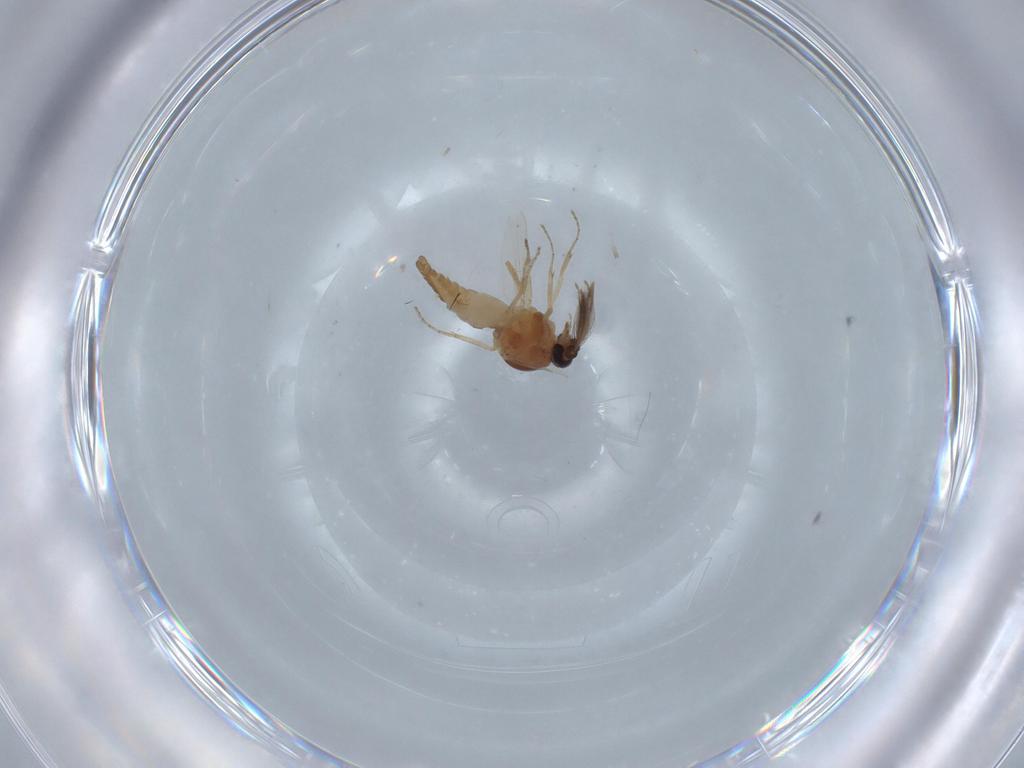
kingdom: Animalia
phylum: Arthropoda
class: Insecta
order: Diptera
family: Ceratopogonidae
